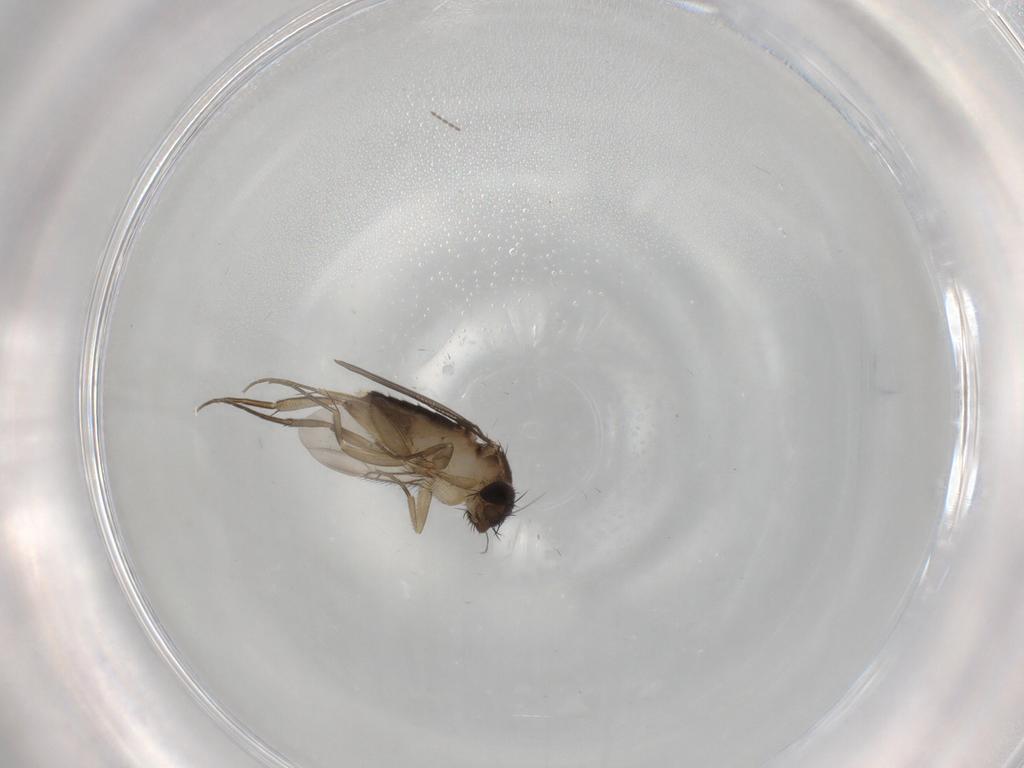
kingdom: Animalia
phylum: Arthropoda
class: Insecta
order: Diptera
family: Phoridae
